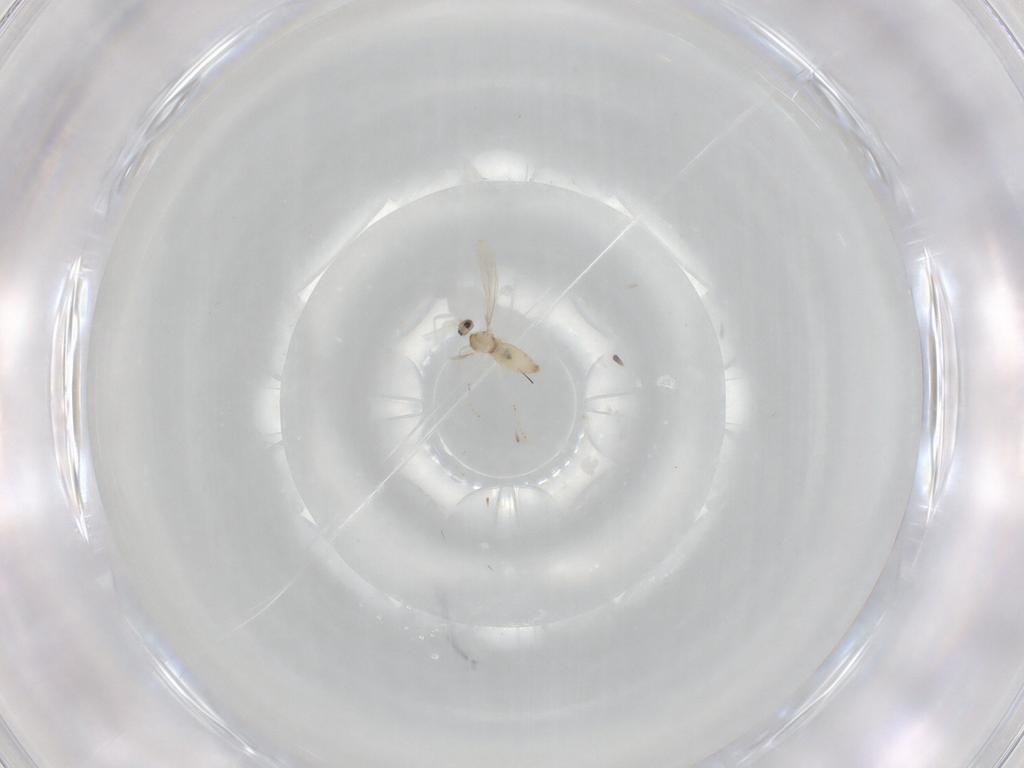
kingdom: Animalia
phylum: Arthropoda
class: Insecta
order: Diptera
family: Cecidomyiidae
